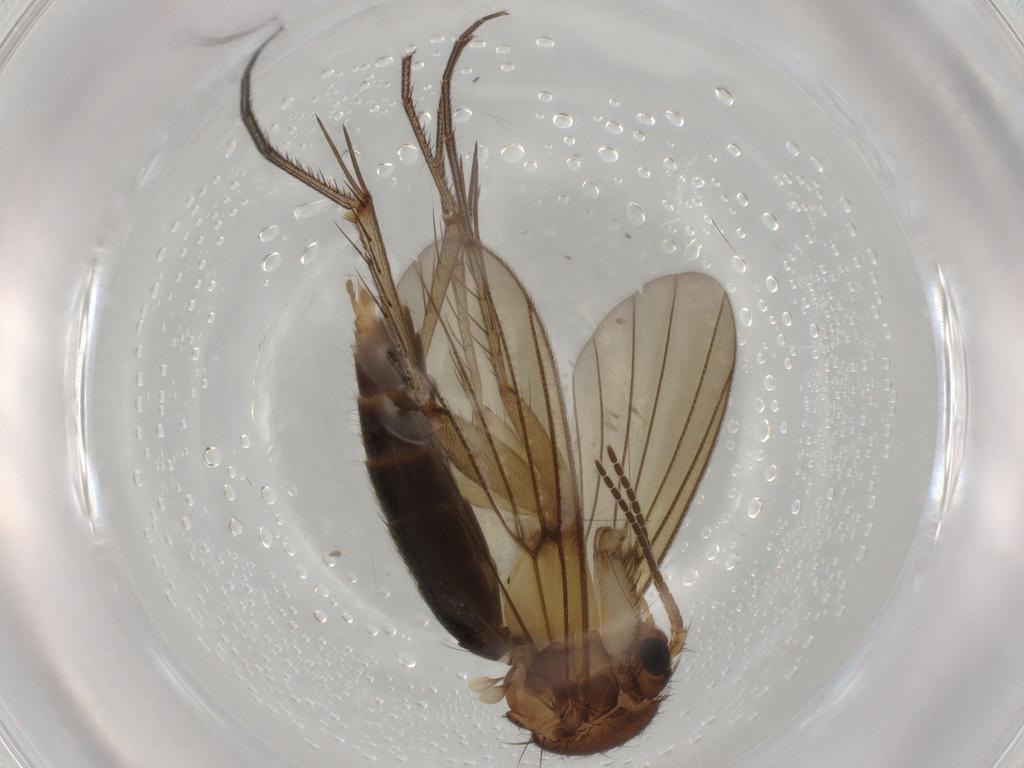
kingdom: Animalia
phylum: Arthropoda
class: Insecta
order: Diptera
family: Mycetophilidae
